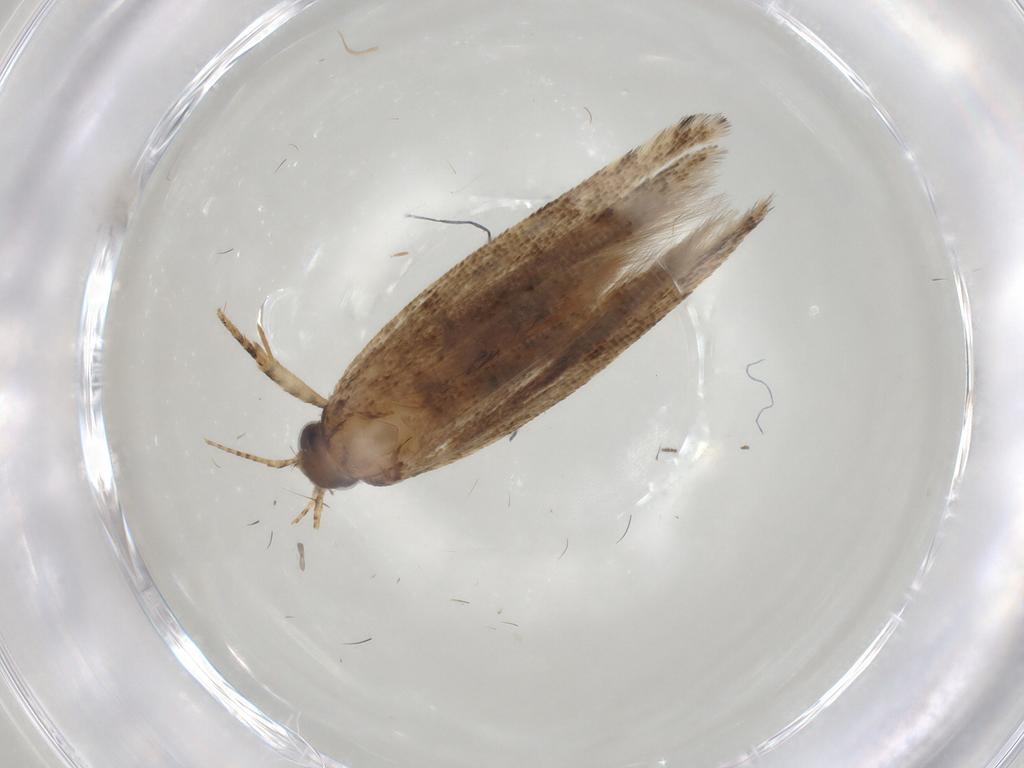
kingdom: Animalia
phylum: Arthropoda
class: Insecta
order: Lepidoptera
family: Gelechiidae
